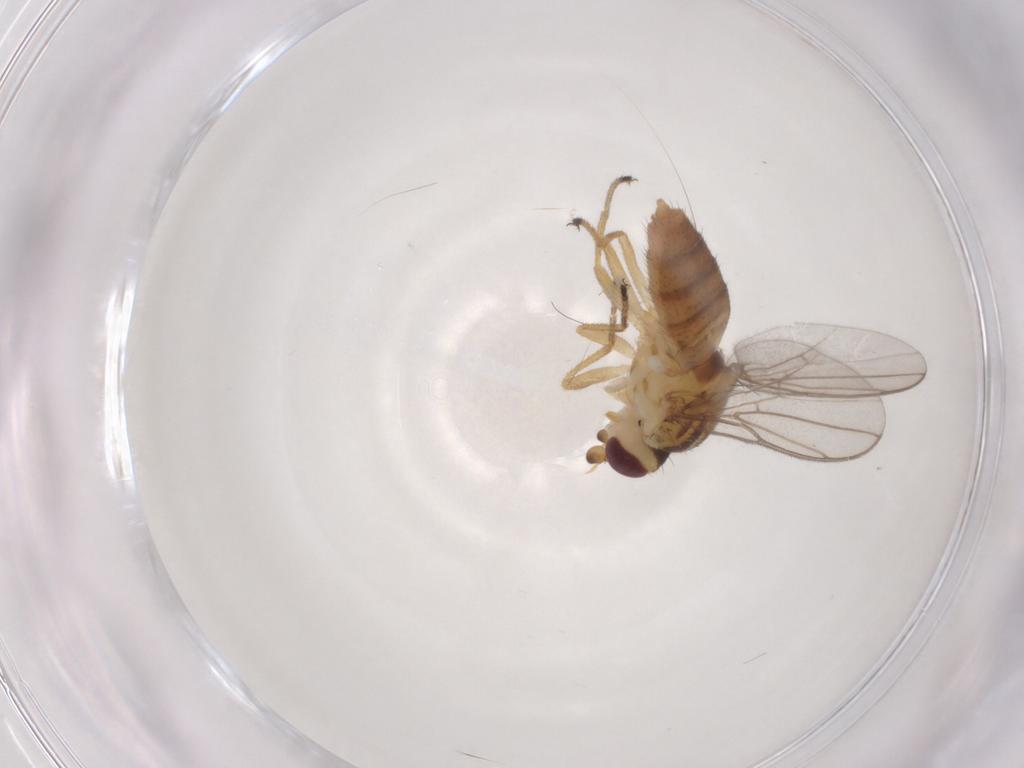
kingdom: Animalia
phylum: Arthropoda
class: Insecta
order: Diptera
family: Chloropidae
